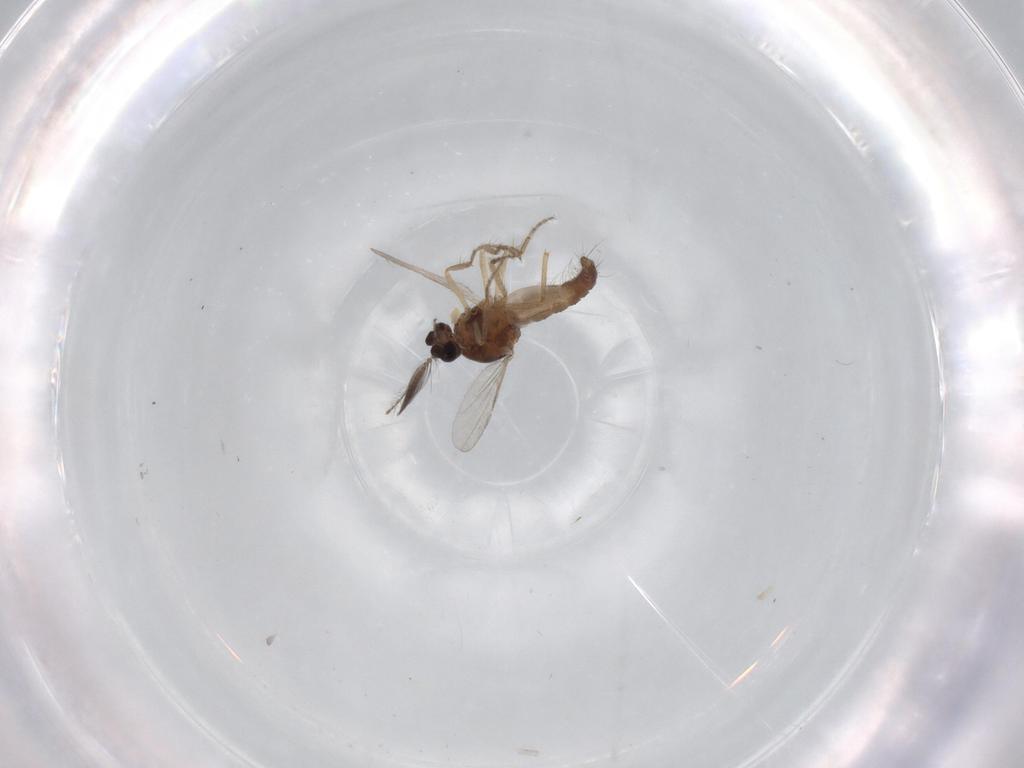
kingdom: Animalia
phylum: Arthropoda
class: Insecta
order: Diptera
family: Ceratopogonidae
